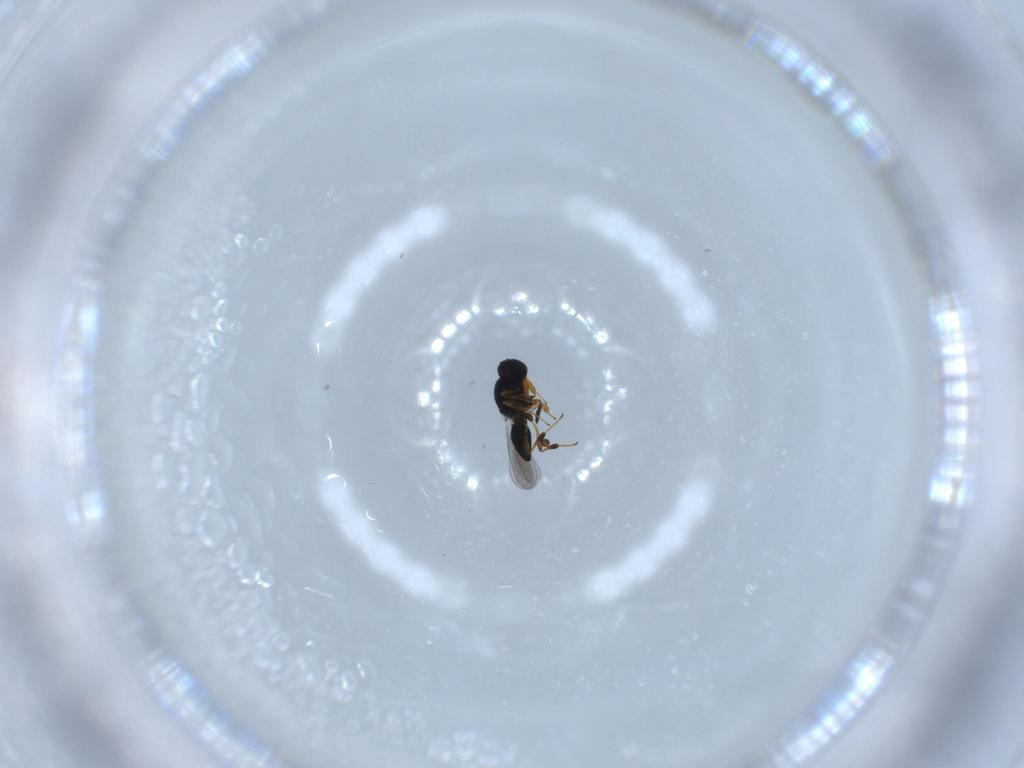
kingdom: Animalia
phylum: Arthropoda
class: Insecta
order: Hymenoptera
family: Platygastridae
